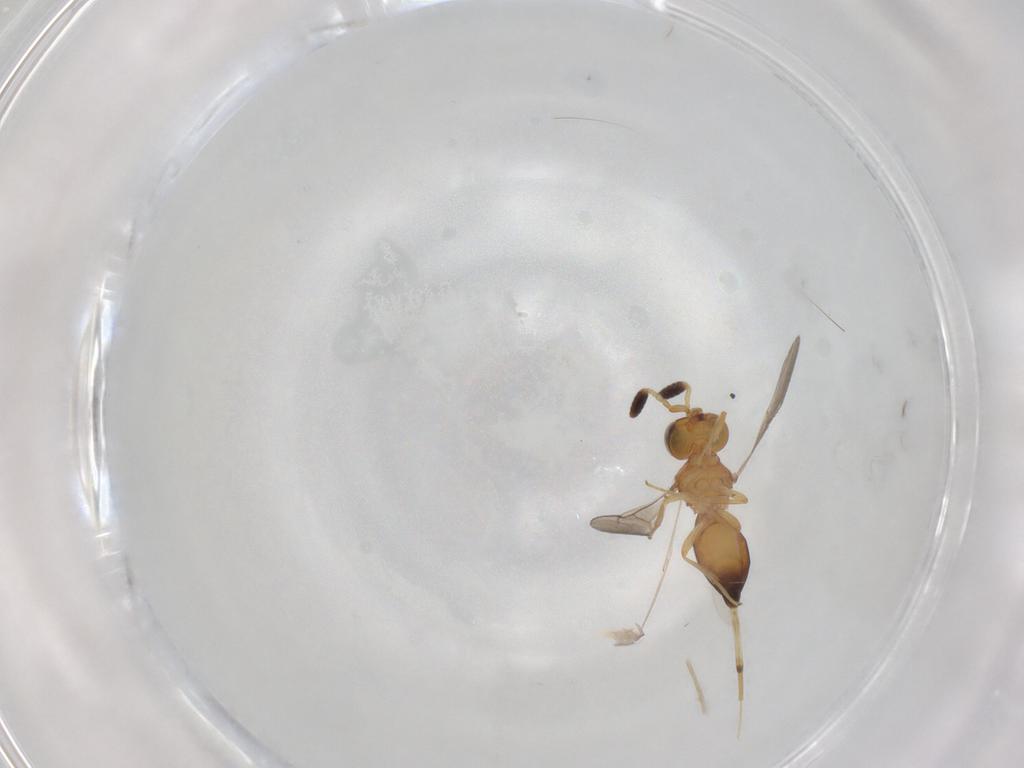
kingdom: Animalia
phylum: Arthropoda
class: Insecta
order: Hymenoptera
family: Scelionidae
